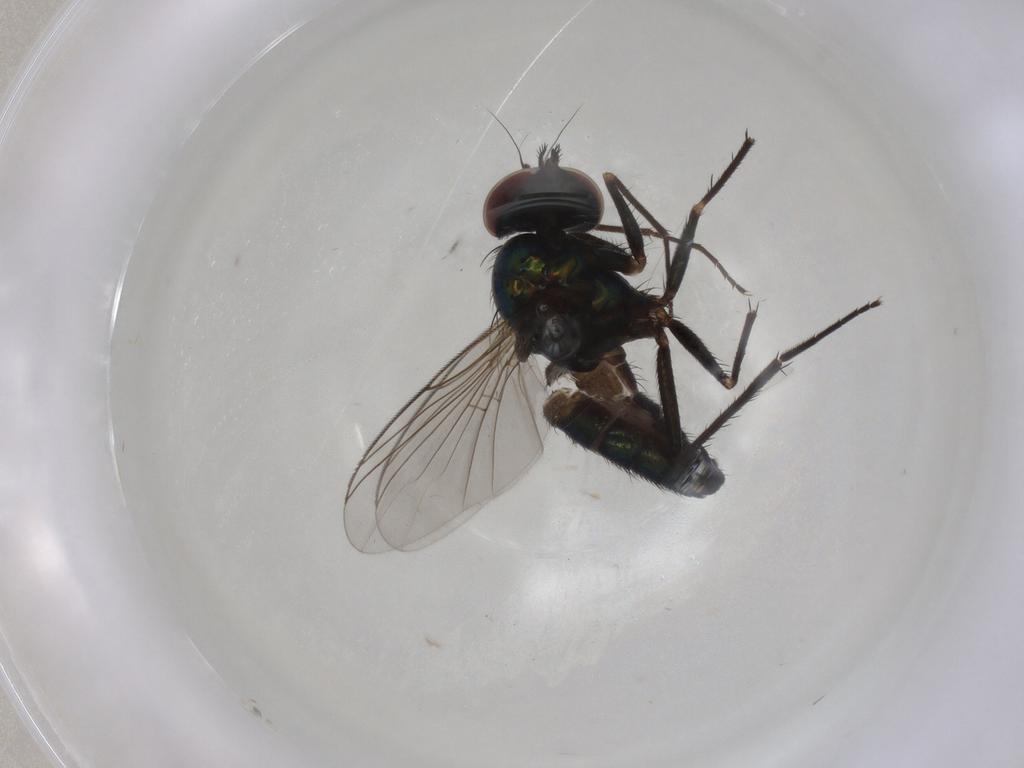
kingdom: Animalia
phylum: Arthropoda
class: Insecta
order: Diptera
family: Dolichopodidae
